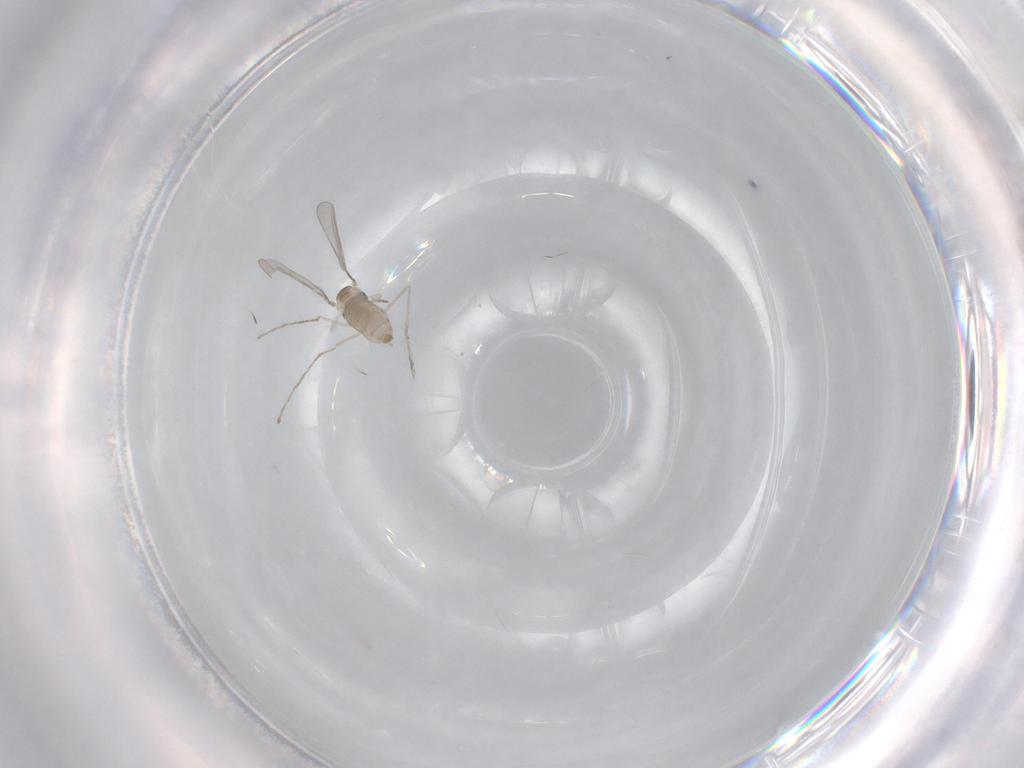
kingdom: Animalia
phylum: Arthropoda
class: Insecta
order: Diptera
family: Cecidomyiidae
